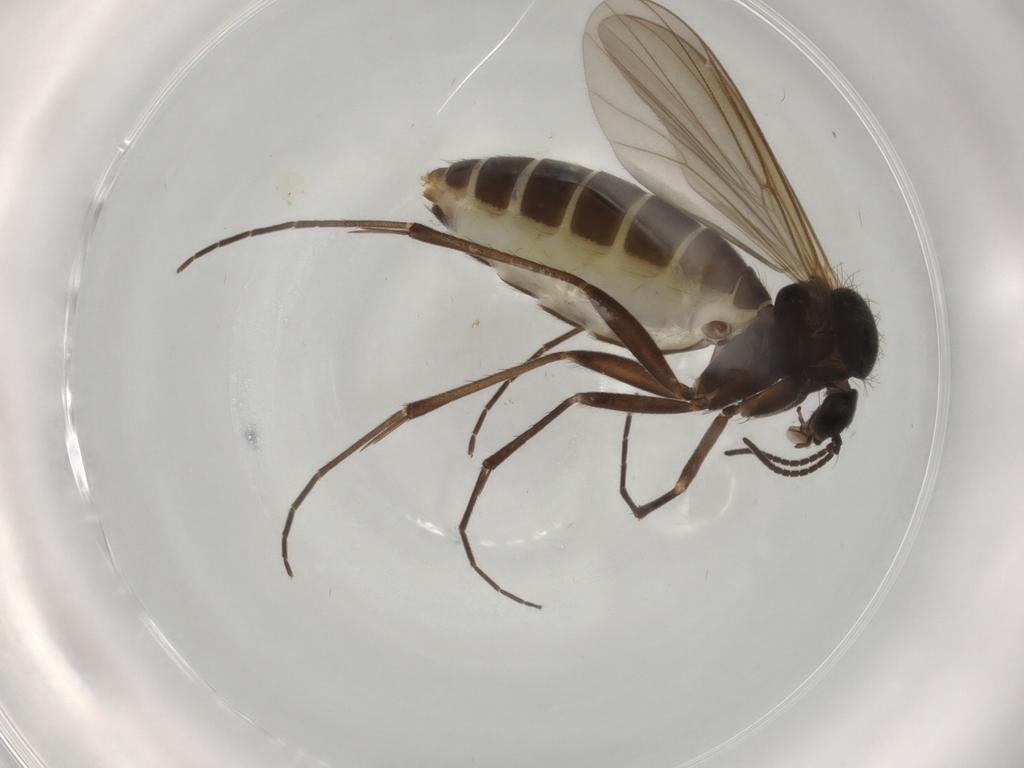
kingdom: Animalia
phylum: Arthropoda
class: Insecta
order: Diptera
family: Mycetophilidae
